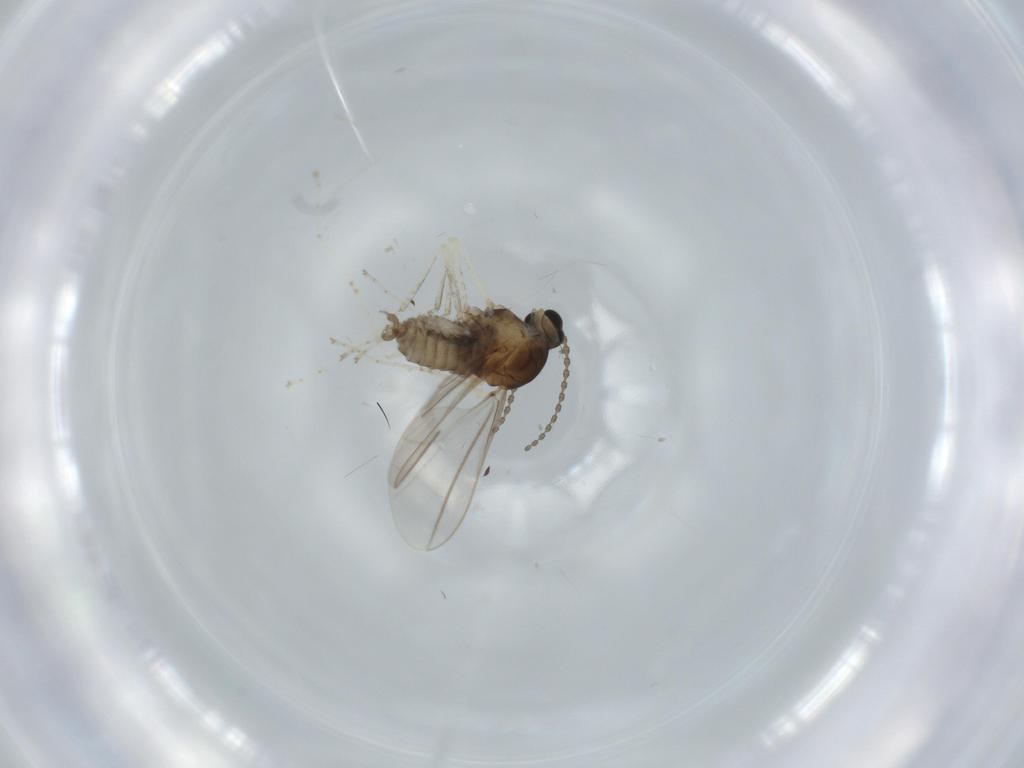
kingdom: Animalia
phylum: Arthropoda
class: Insecta
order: Diptera
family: Cecidomyiidae
